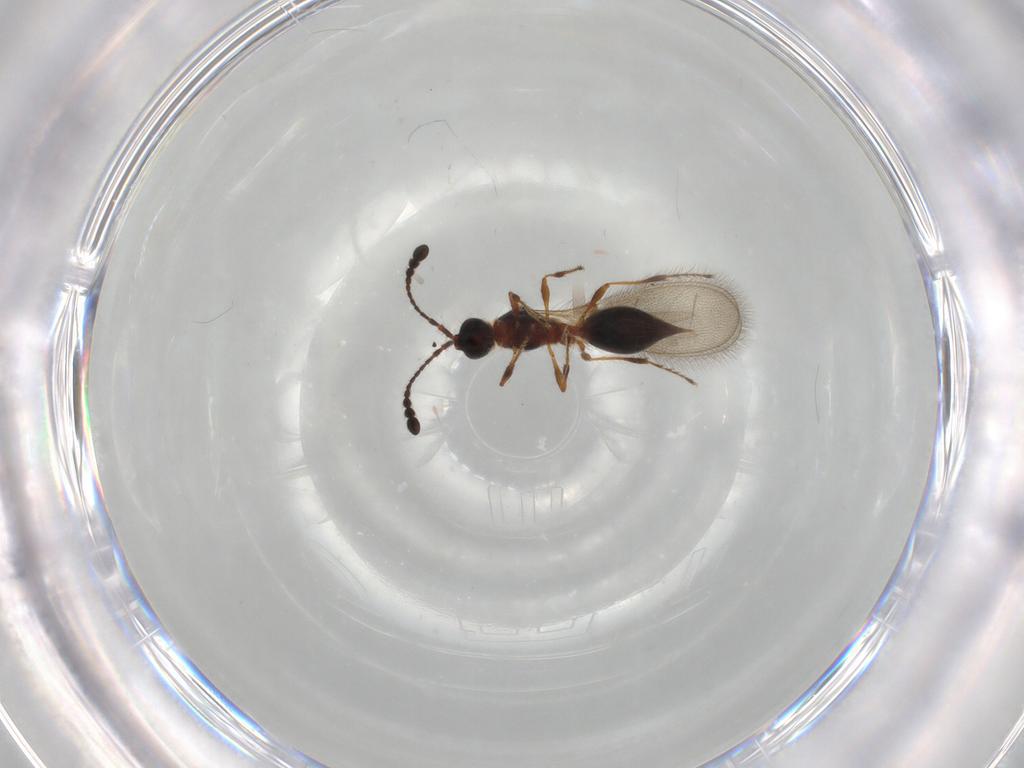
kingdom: Animalia
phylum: Arthropoda
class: Insecta
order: Hymenoptera
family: Diapriidae
